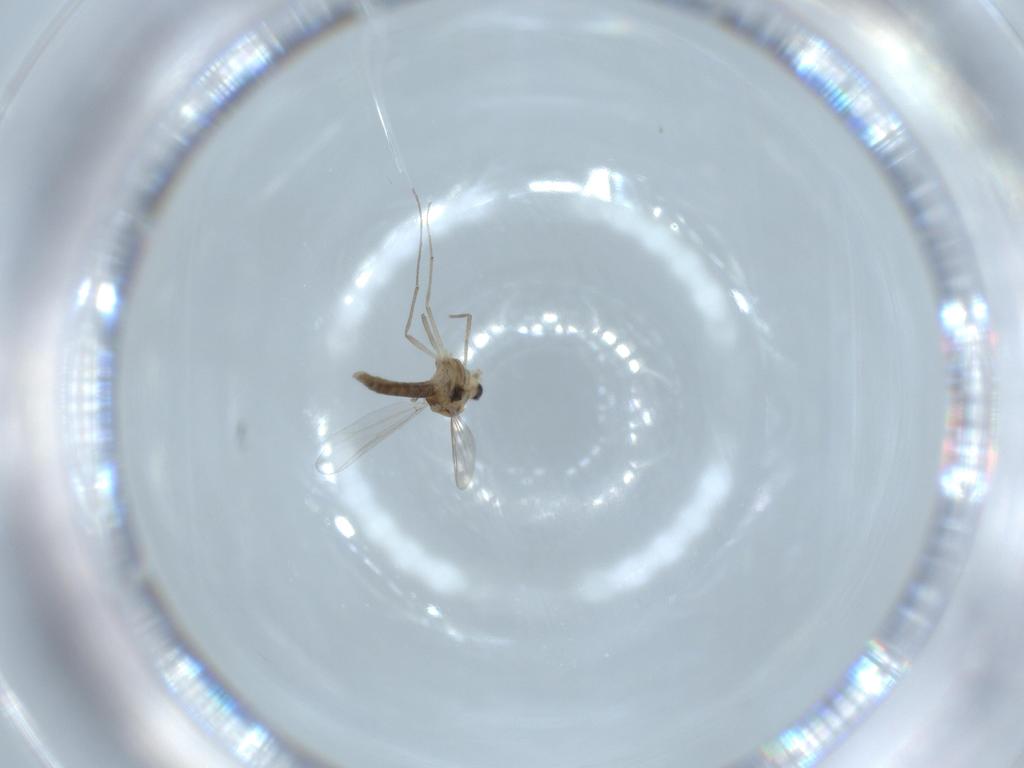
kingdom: Animalia
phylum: Arthropoda
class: Insecta
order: Diptera
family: Chironomidae
